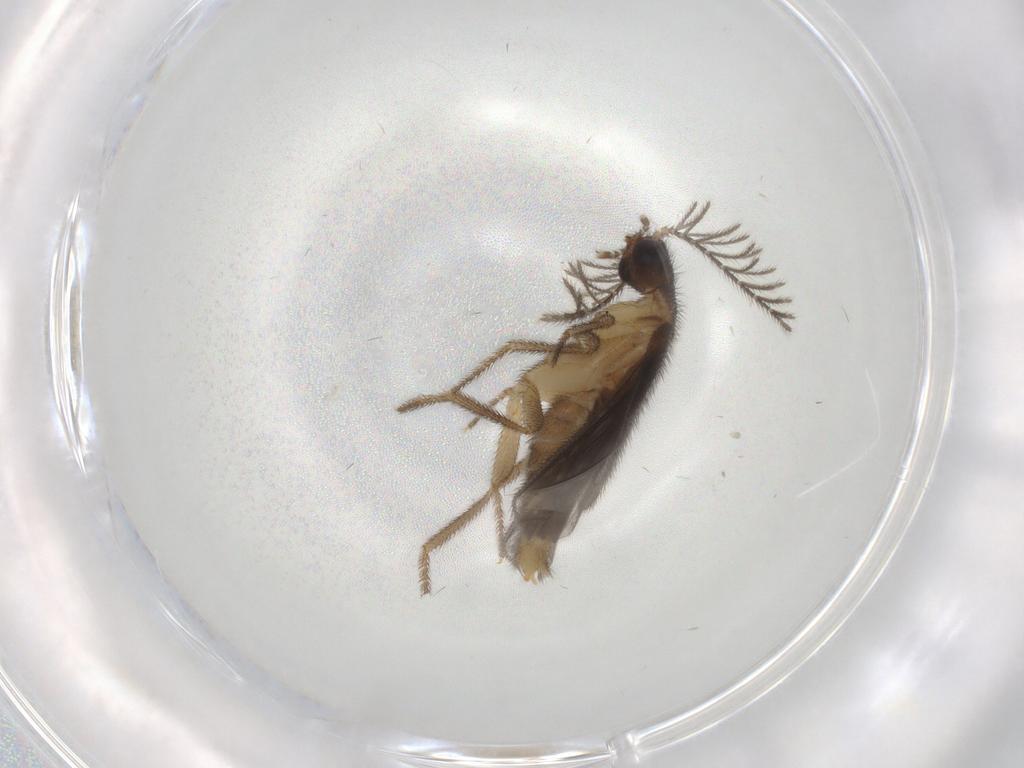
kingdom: Animalia
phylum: Arthropoda
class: Insecta
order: Coleoptera
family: Phengodidae
